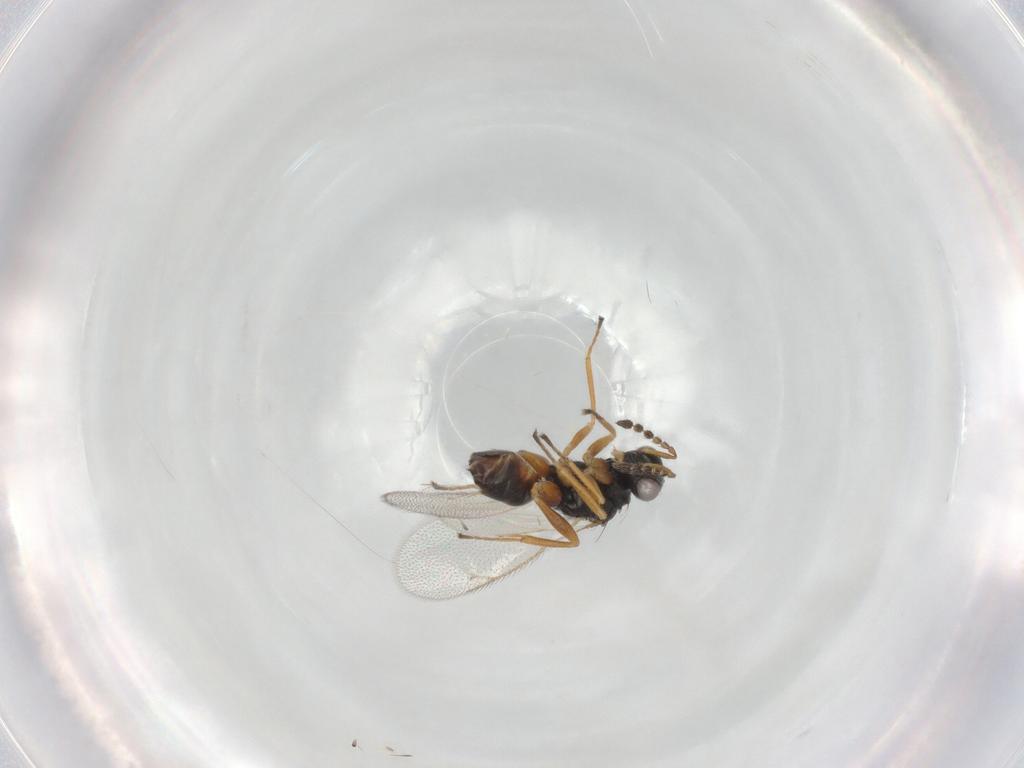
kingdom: Animalia
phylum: Arthropoda
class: Insecta
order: Hymenoptera
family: Eulophidae
